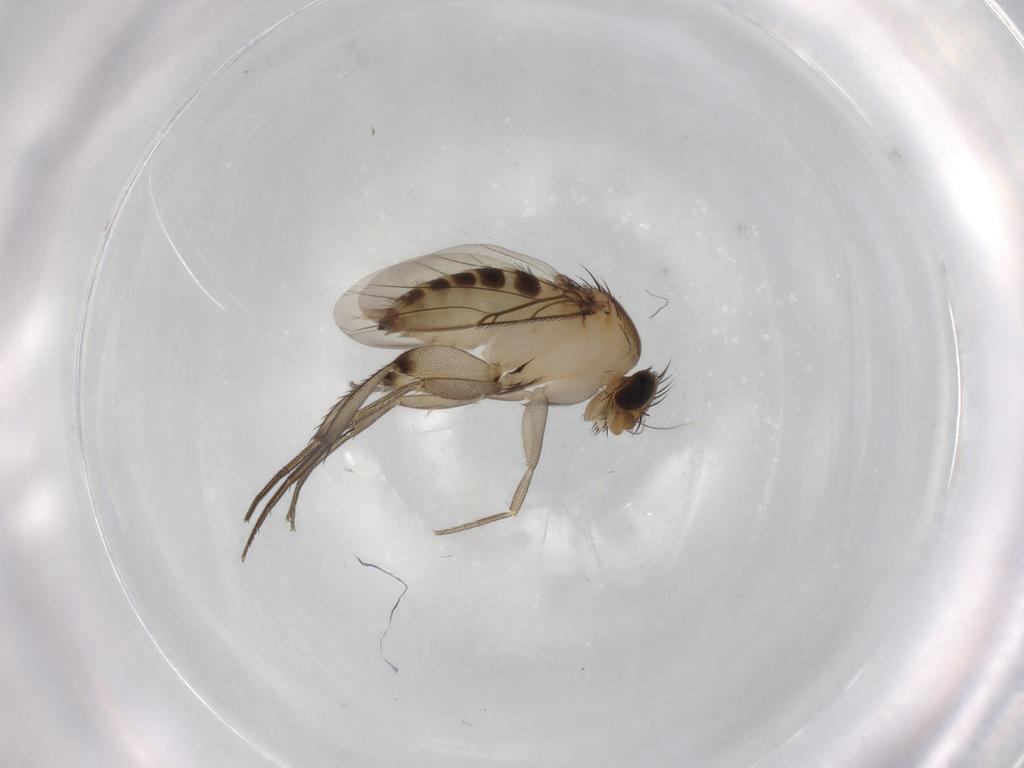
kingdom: Animalia
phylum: Arthropoda
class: Insecta
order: Diptera
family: Phoridae
